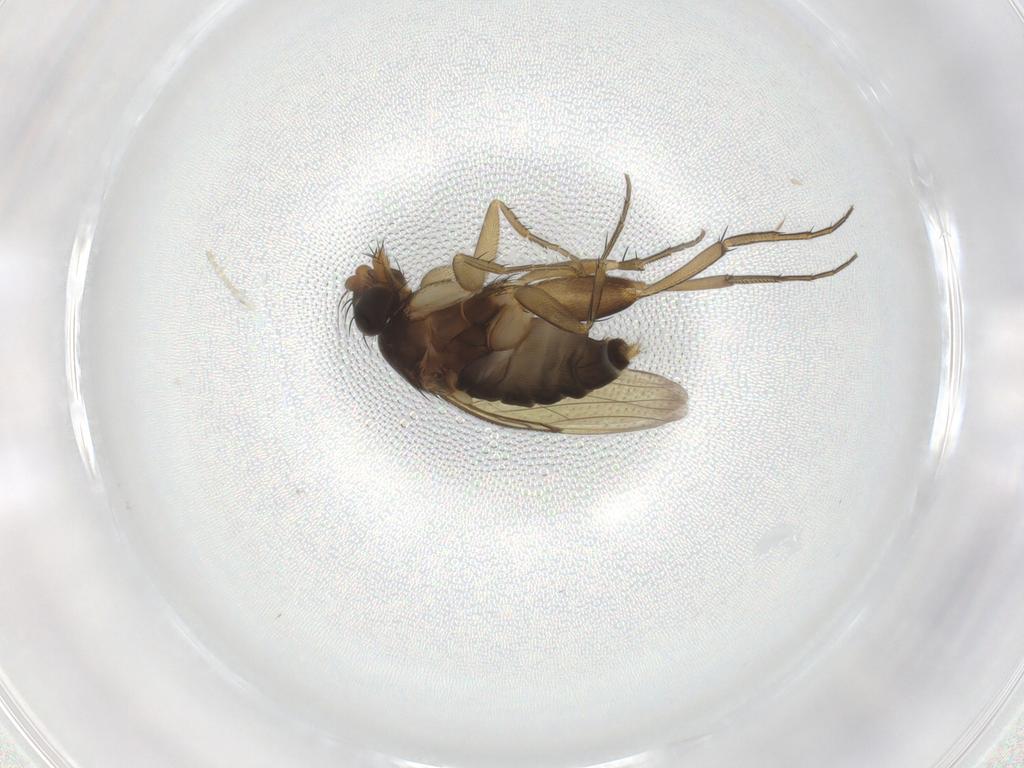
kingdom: Animalia
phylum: Arthropoda
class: Insecta
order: Diptera
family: Phoridae
